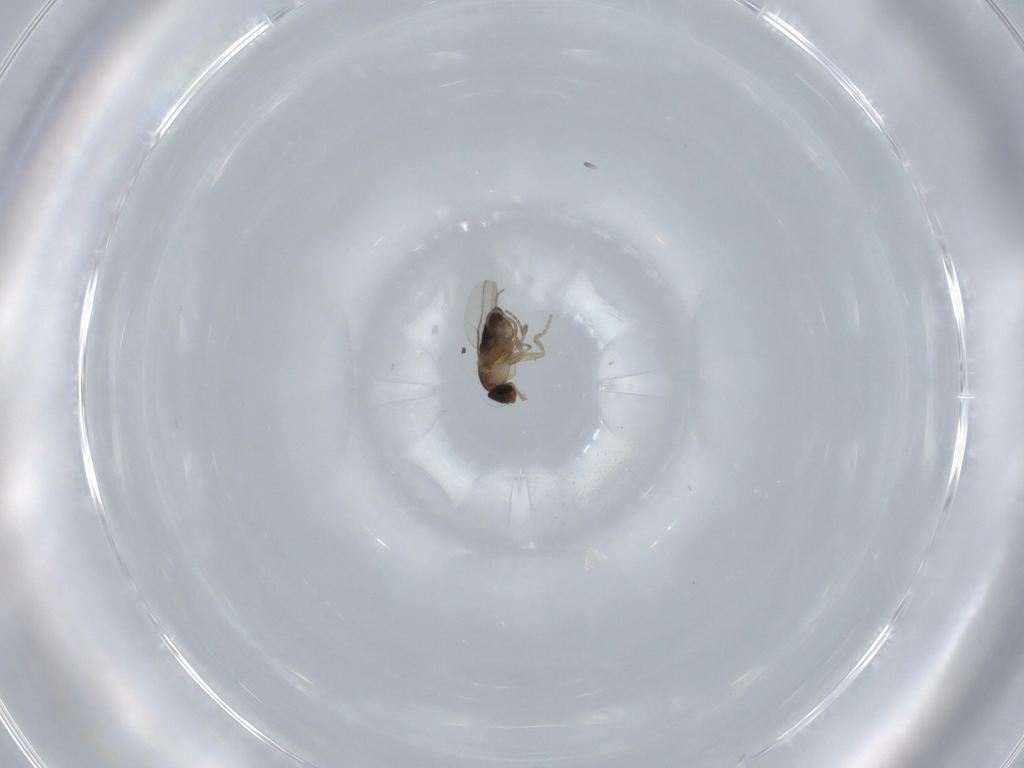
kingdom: Animalia
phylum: Arthropoda
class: Insecta
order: Diptera
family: Phoridae
